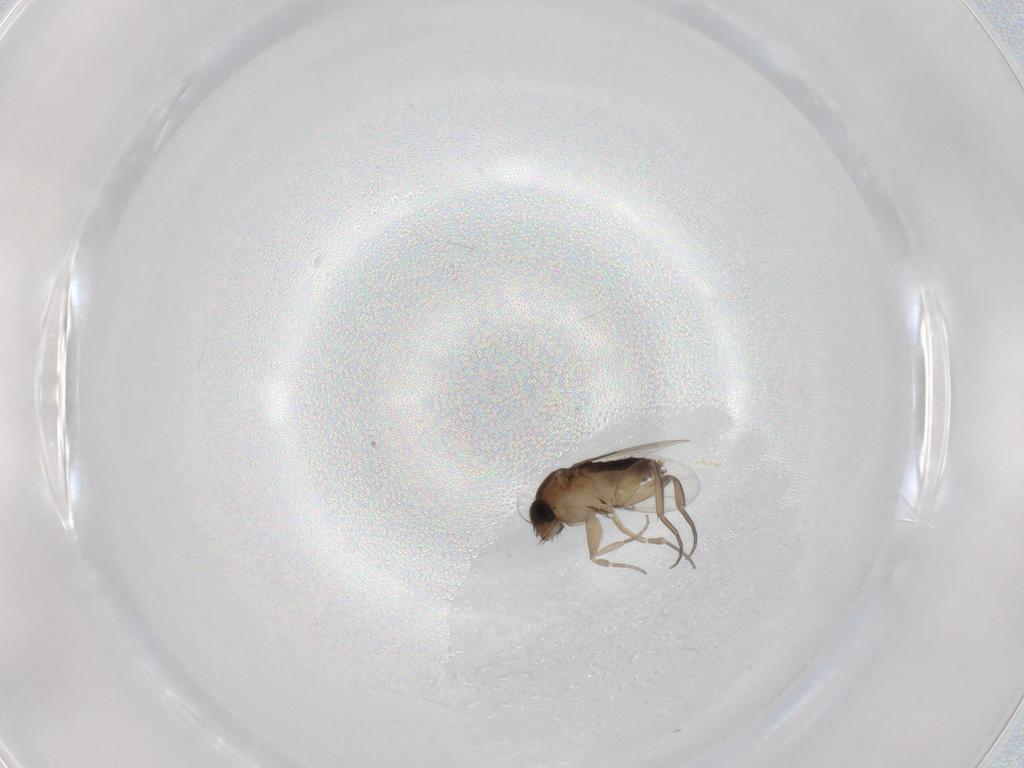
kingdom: Animalia
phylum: Arthropoda
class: Insecta
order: Diptera
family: Phoridae
